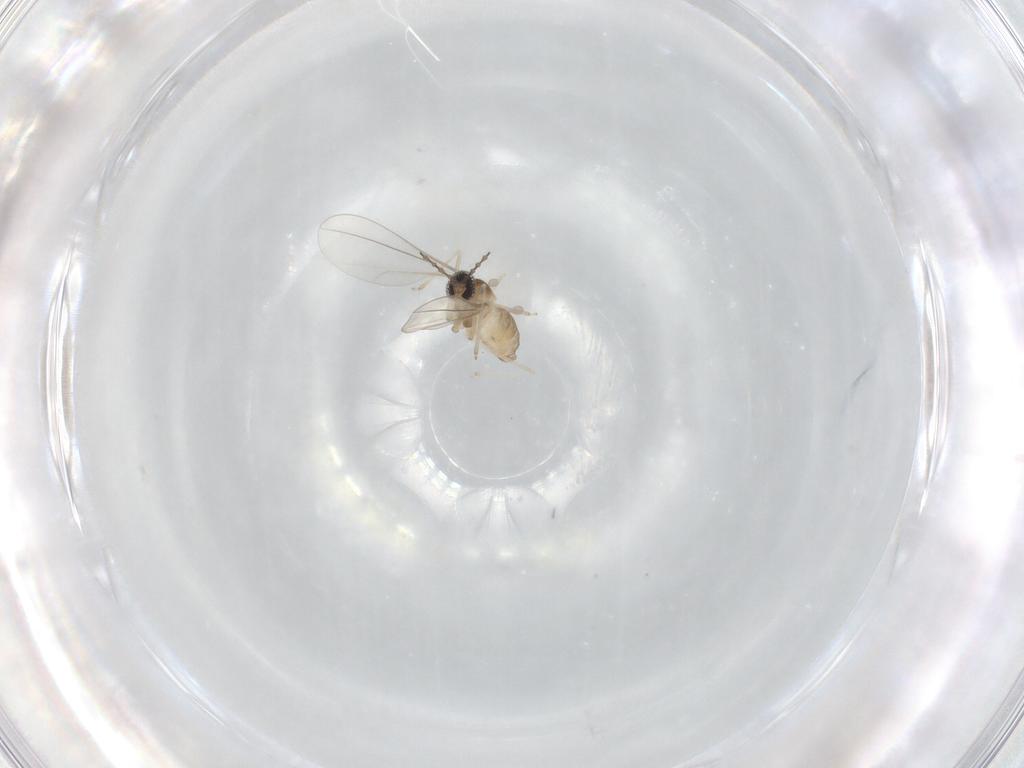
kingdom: Animalia
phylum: Arthropoda
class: Insecta
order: Diptera
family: Cecidomyiidae
